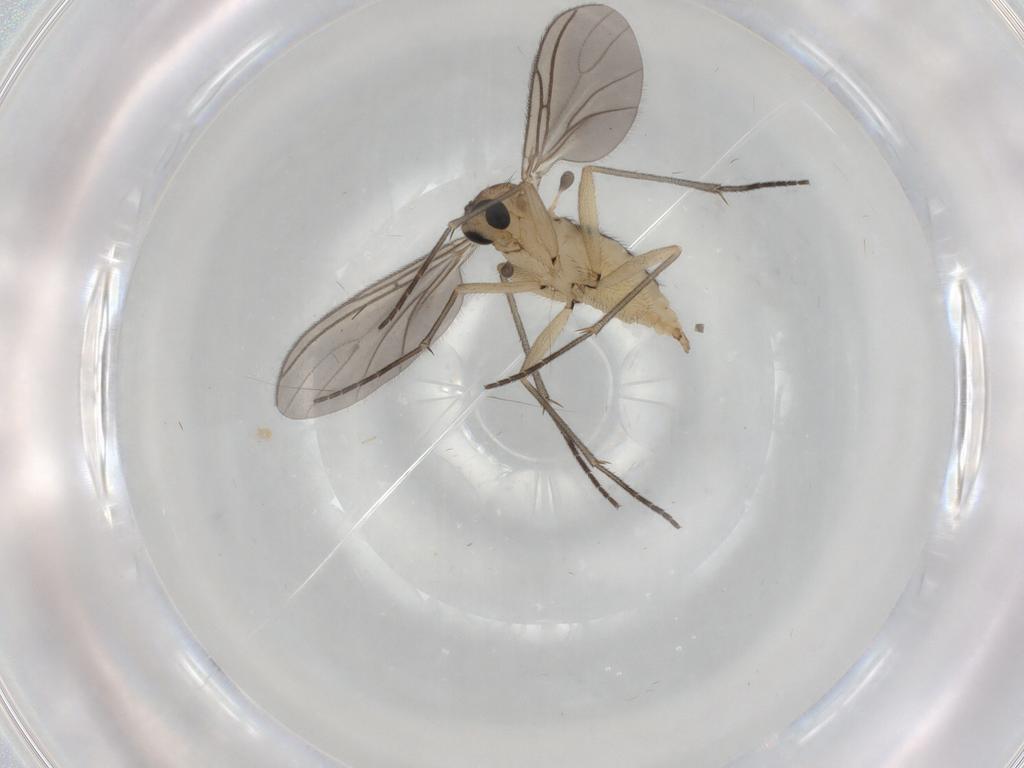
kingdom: Animalia
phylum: Arthropoda
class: Insecta
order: Diptera
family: Sciaridae
